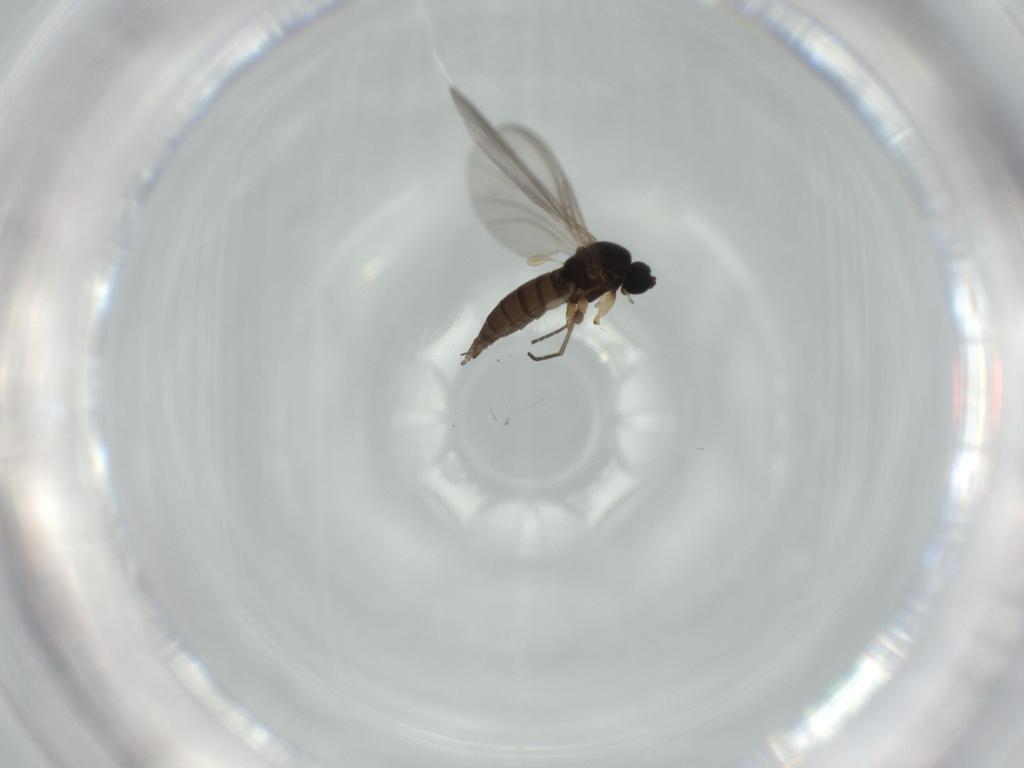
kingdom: Animalia
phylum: Arthropoda
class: Insecta
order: Diptera
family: Sciaridae
